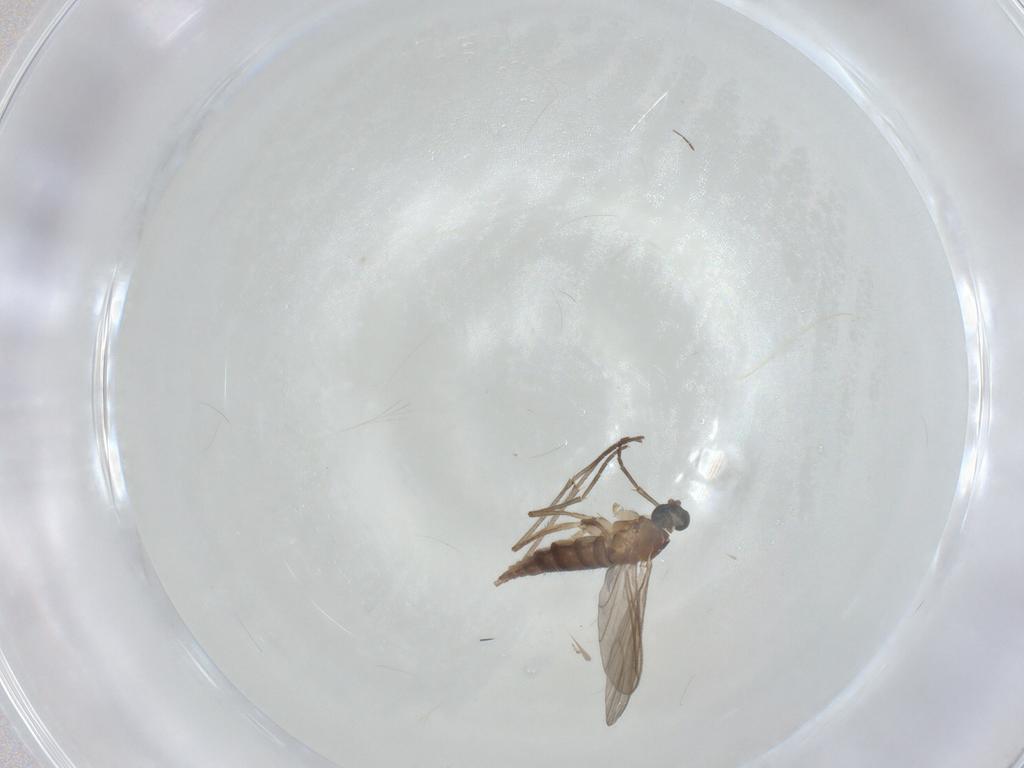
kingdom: Animalia
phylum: Arthropoda
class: Insecta
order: Diptera
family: Sciaridae
